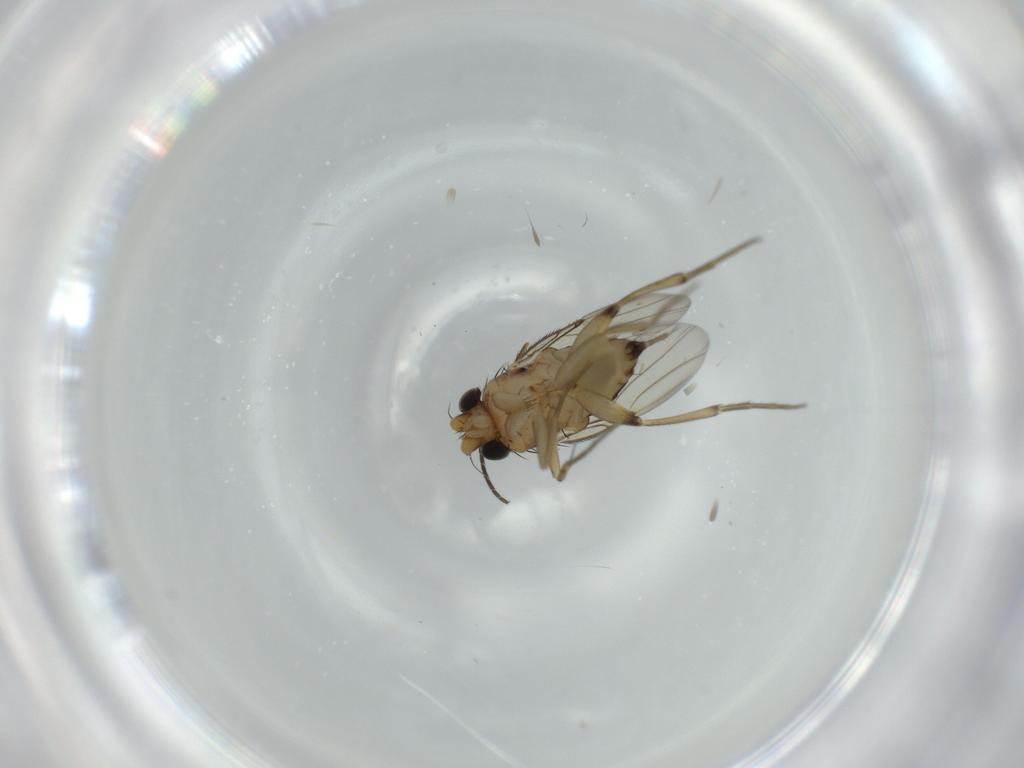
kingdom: Animalia
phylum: Arthropoda
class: Insecta
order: Diptera
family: Sciaridae
